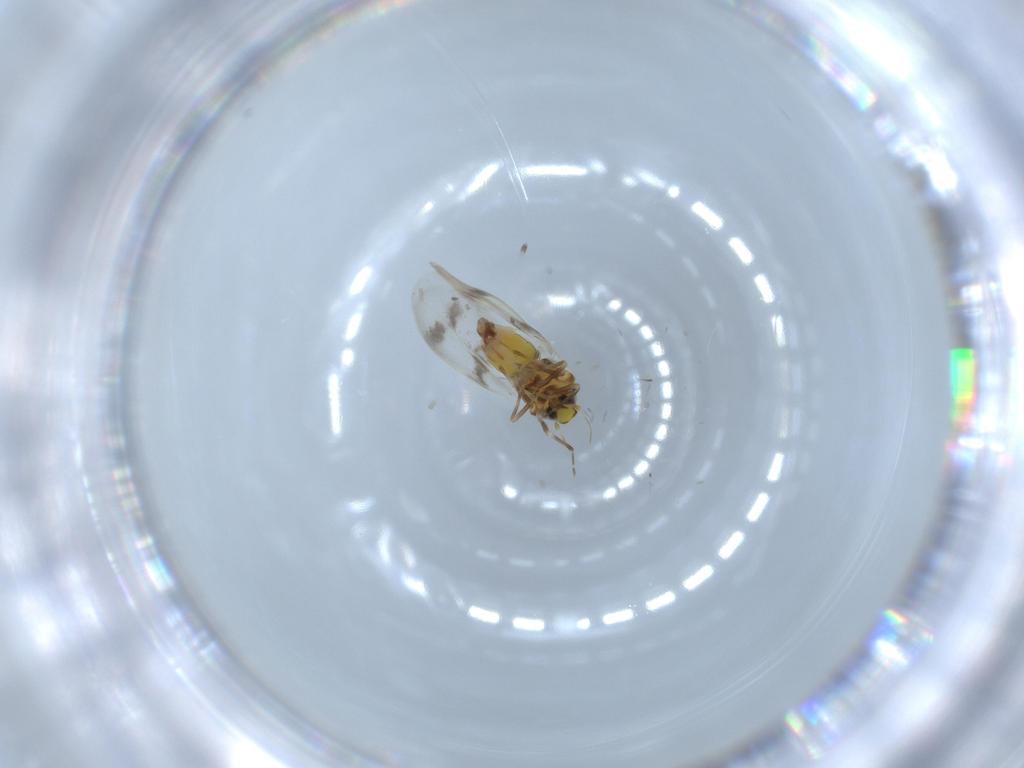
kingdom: Animalia
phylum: Arthropoda
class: Insecta
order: Hemiptera
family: Aleyrodidae
